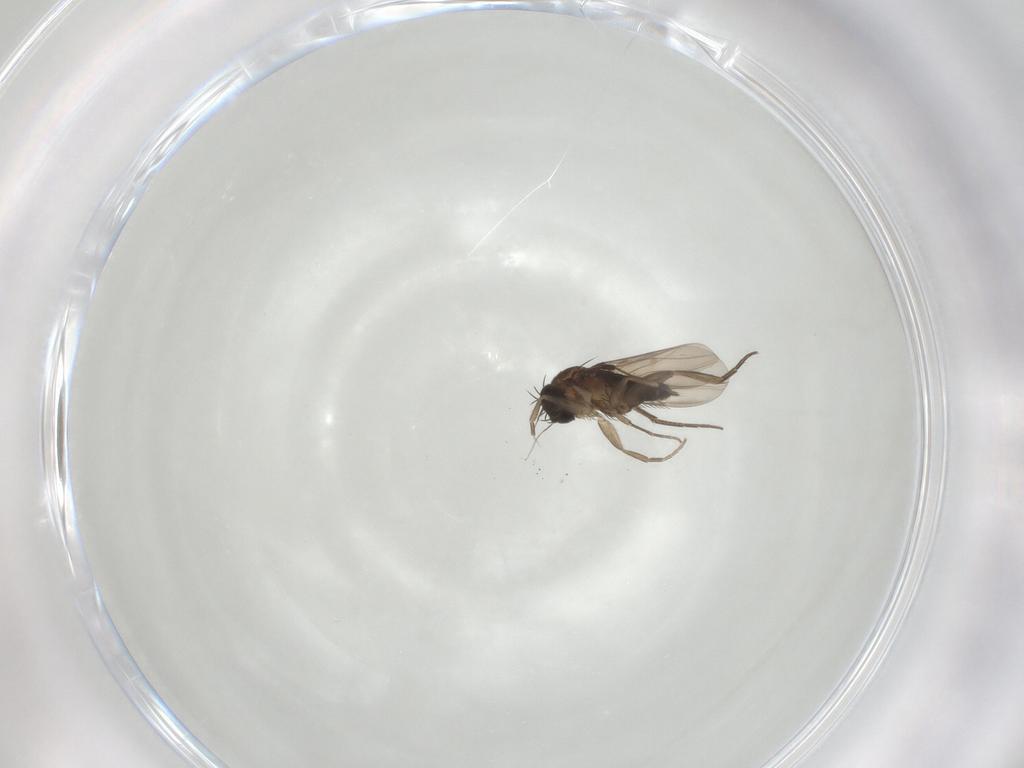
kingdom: Animalia
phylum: Arthropoda
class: Insecta
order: Diptera
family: Phoridae
